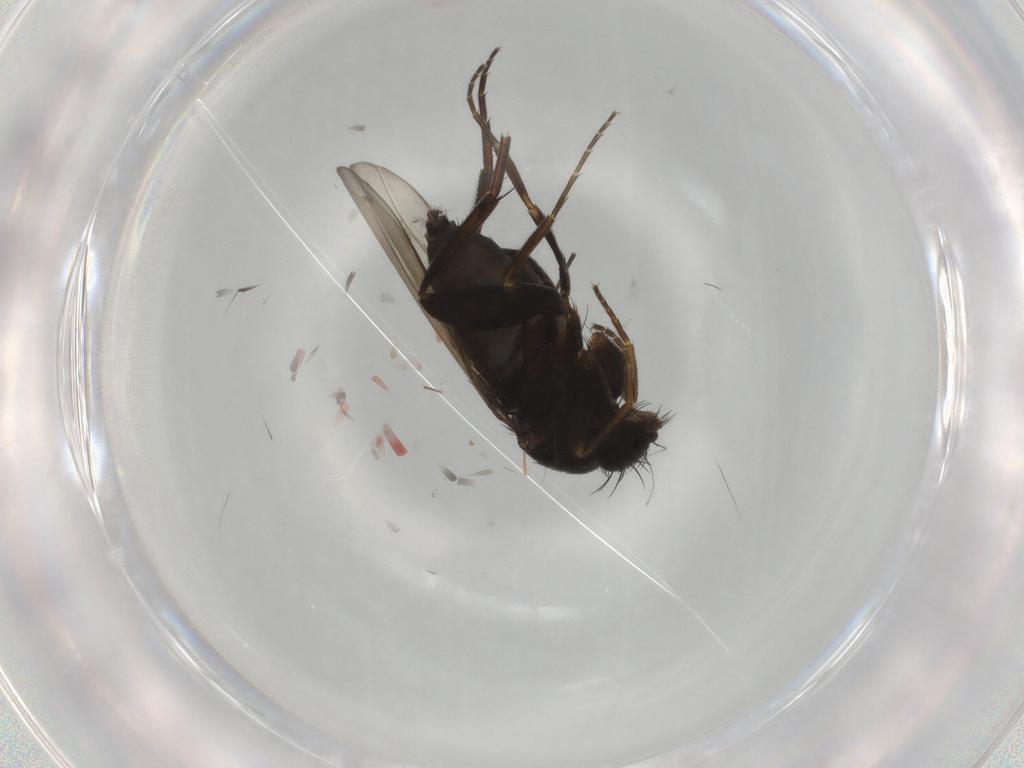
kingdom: Animalia
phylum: Arthropoda
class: Insecta
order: Diptera
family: Phoridae
